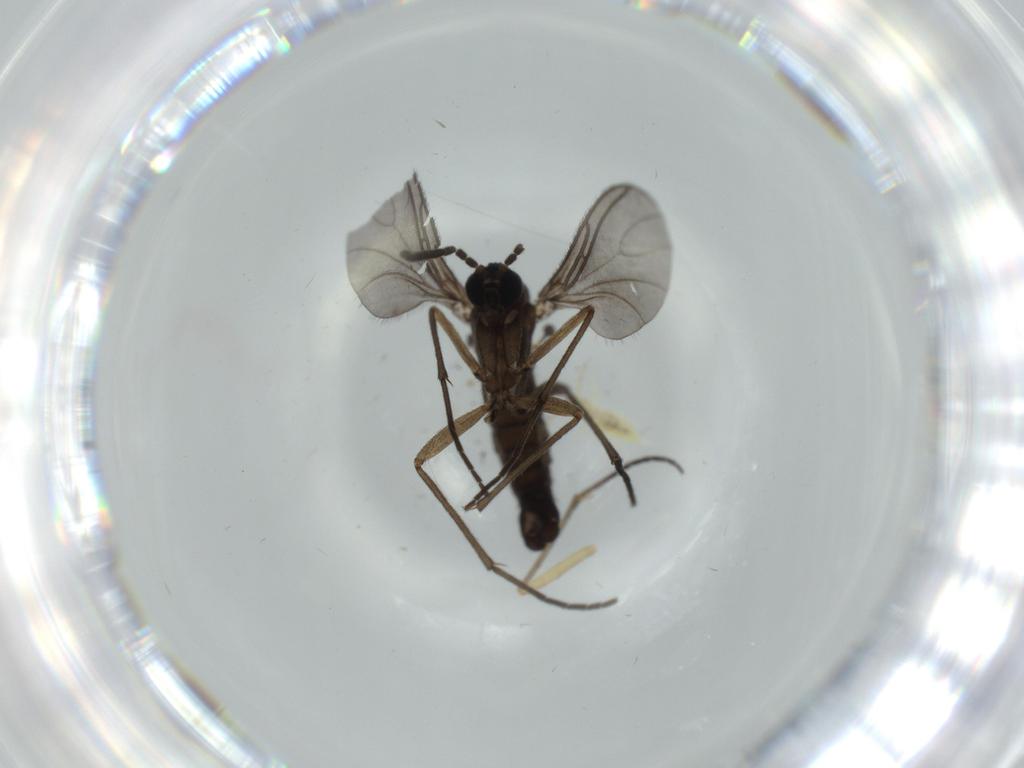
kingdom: Animalia
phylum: Arthropoda
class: Insecta
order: Diptera
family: Sciaridae
